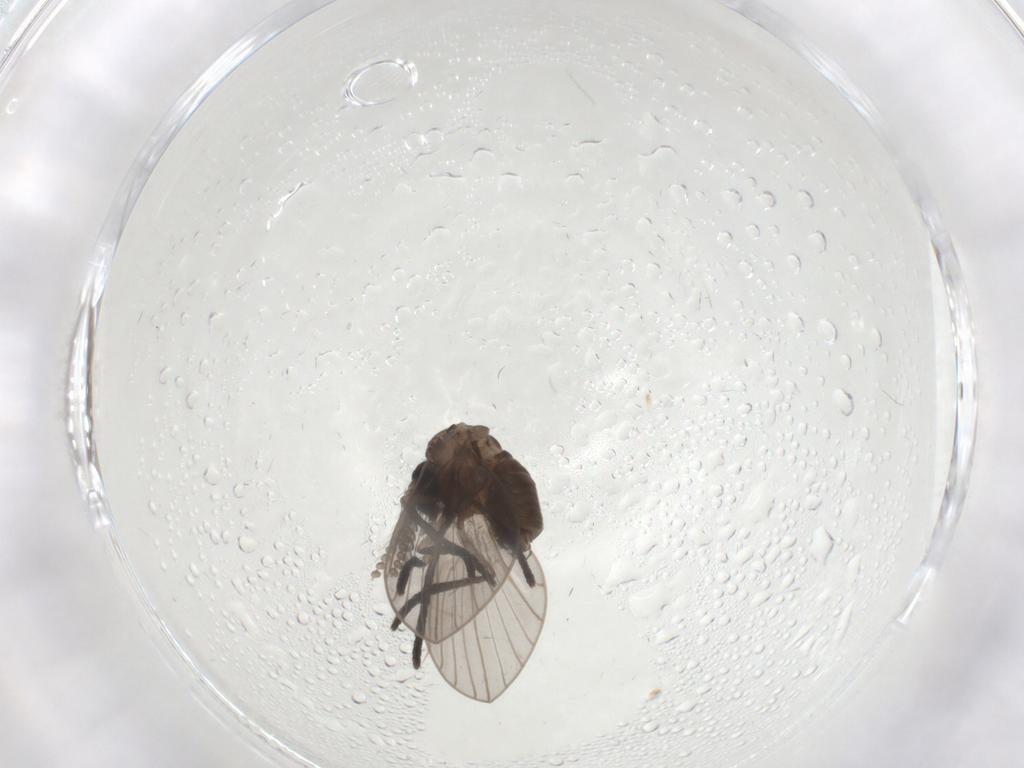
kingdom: Animalia
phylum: Arthropoda
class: Insecta
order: Diptera
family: Psychodidae
